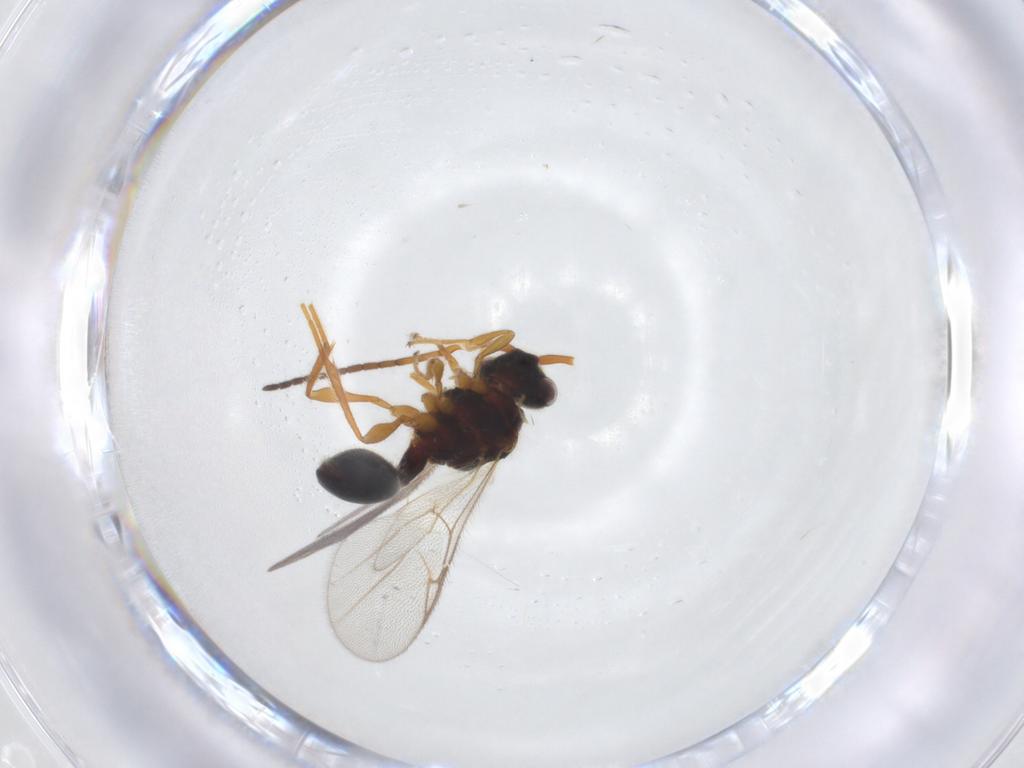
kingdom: Animalia
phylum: Arthropoda
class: Insecta
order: Hymenoptera
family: Diapriidae
